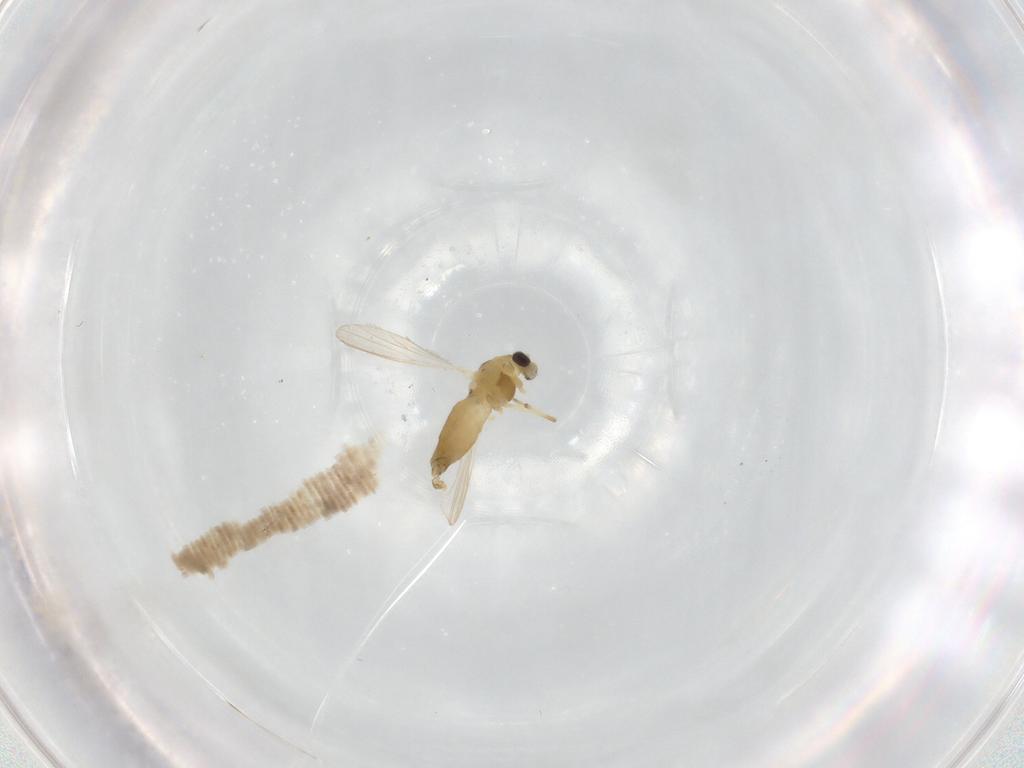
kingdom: Animalia
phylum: Arthropoda
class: Insecta
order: Diptera
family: Chironomidae
